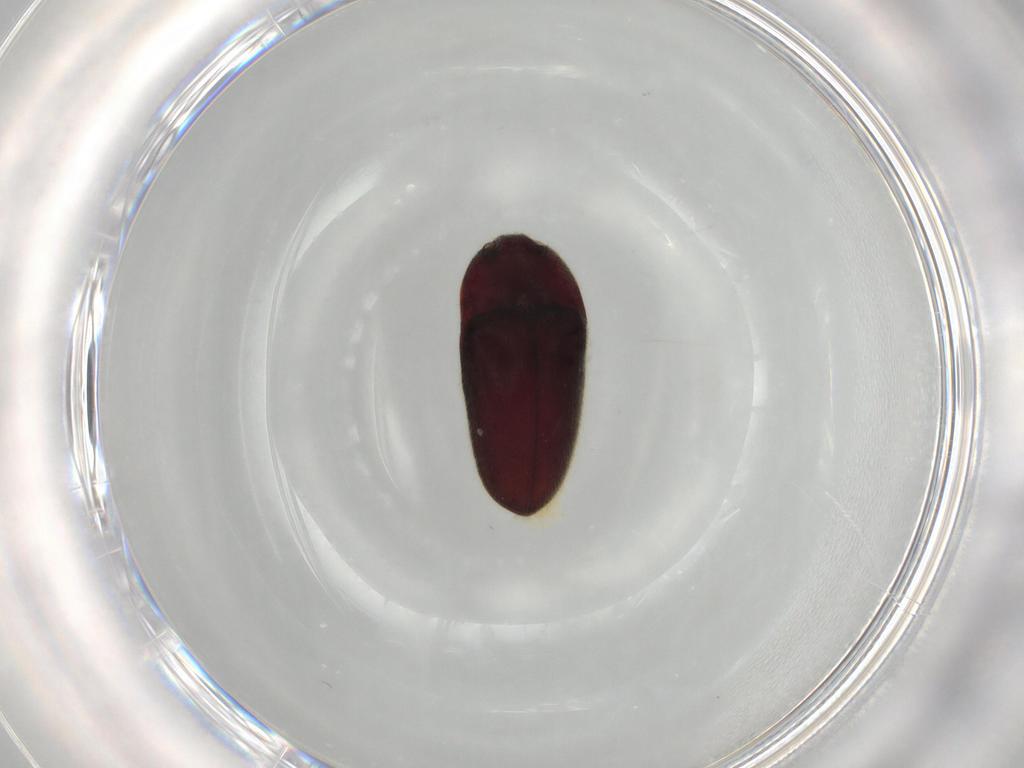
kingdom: Animalia
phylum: Arthropoda
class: Insecta
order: Coleoptera
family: Throscidae
